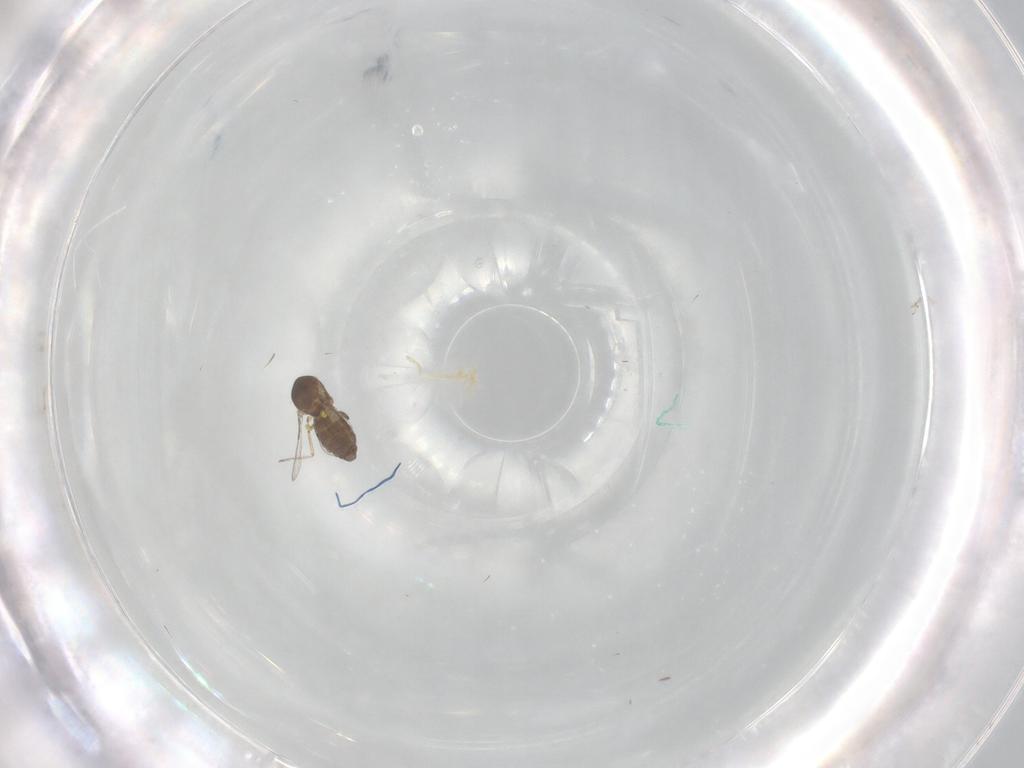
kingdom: Animalia
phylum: Arthropoda
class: Insecta
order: Diptera
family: Ceratopogonidae
